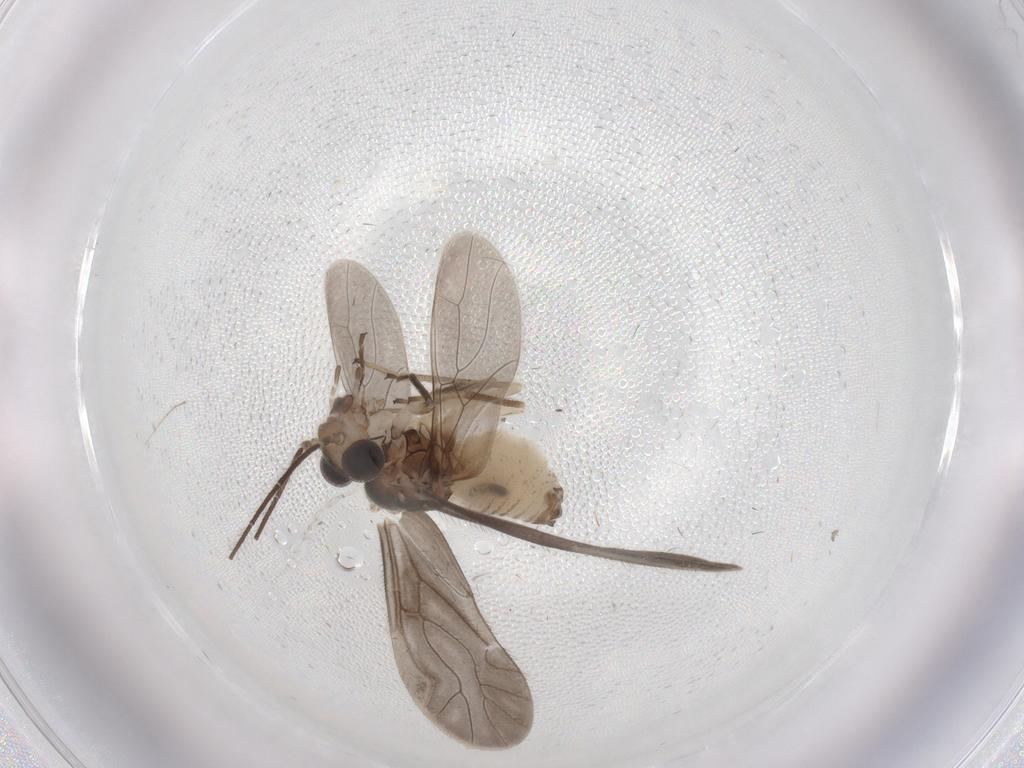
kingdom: Animalia
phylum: Arthropoda
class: Insecta
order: Psocodea
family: Caeciliusidae
